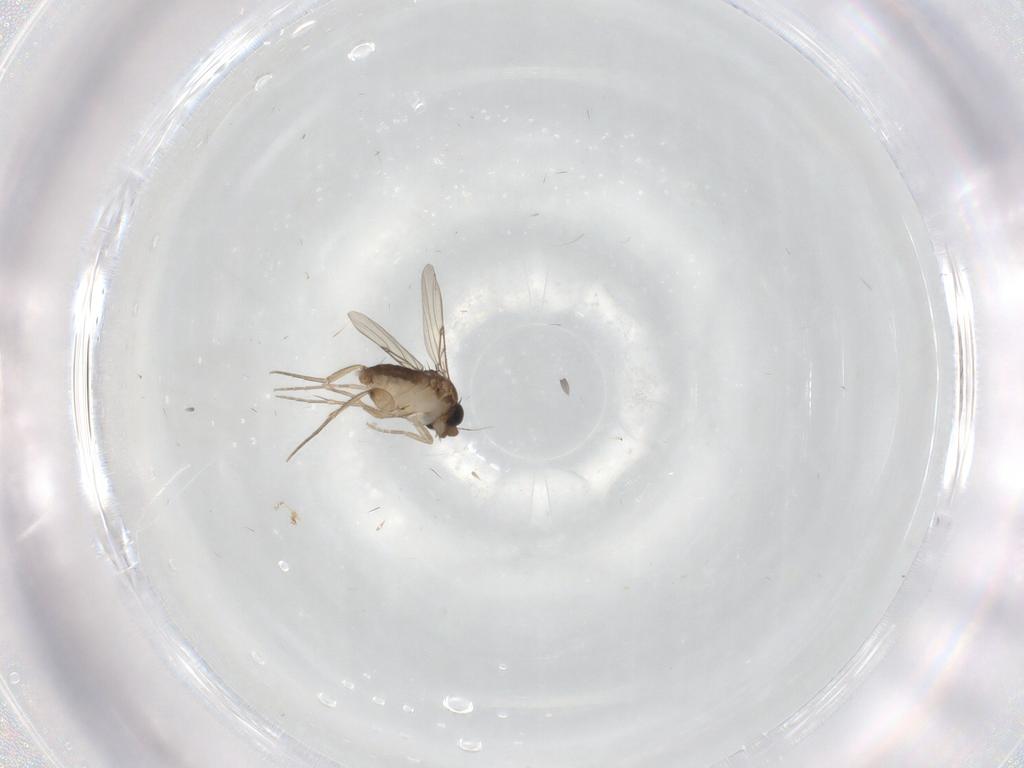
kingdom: Animalia
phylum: Arthropoda
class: Insecta
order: Diptera
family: Phoridae
